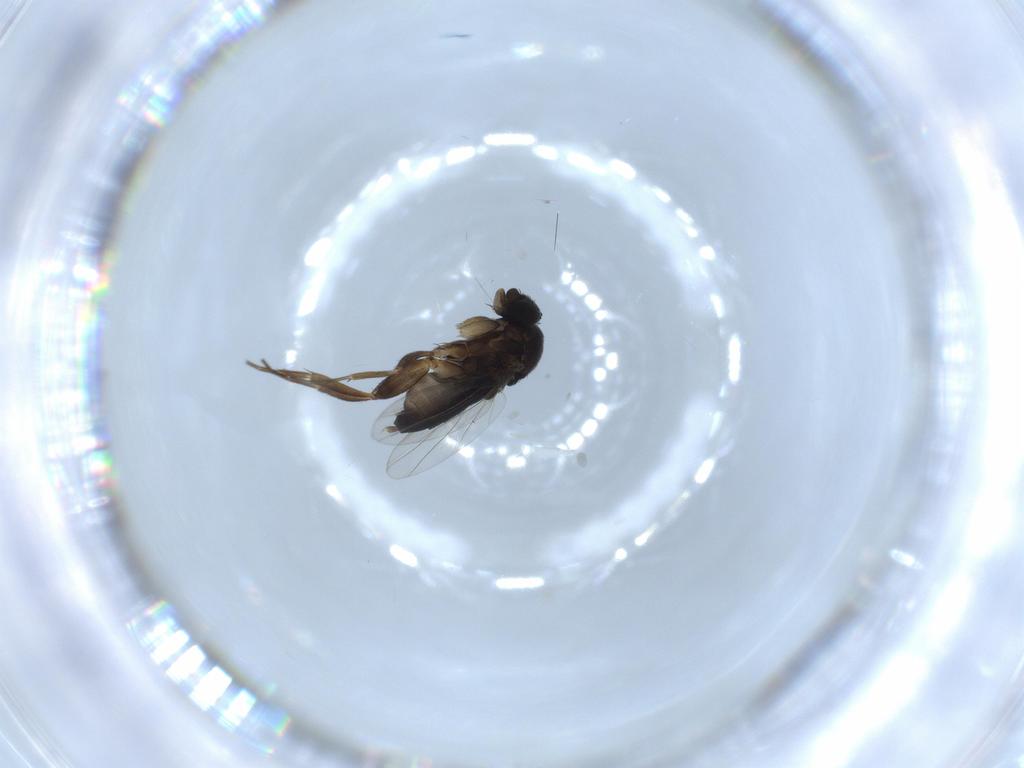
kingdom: Animalia
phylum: Arthropoda
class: Insecta
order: Diptera
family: Phoridae
